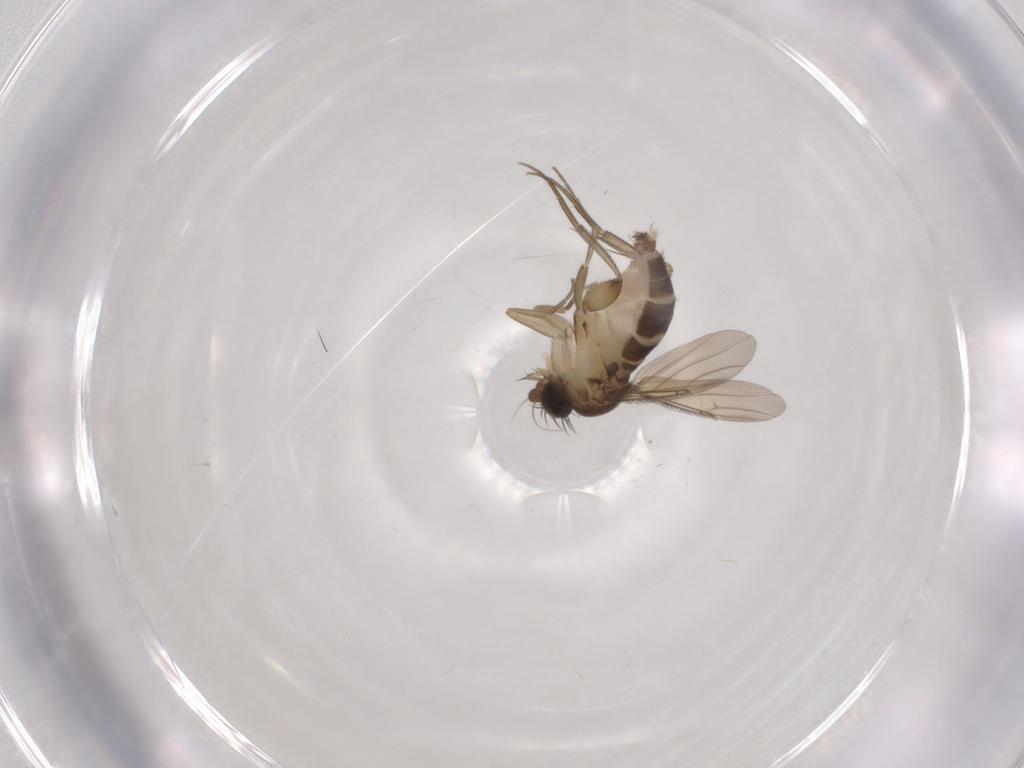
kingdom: Animalia
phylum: Arthropoda
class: Insecta
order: Diptera
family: Phoridae
